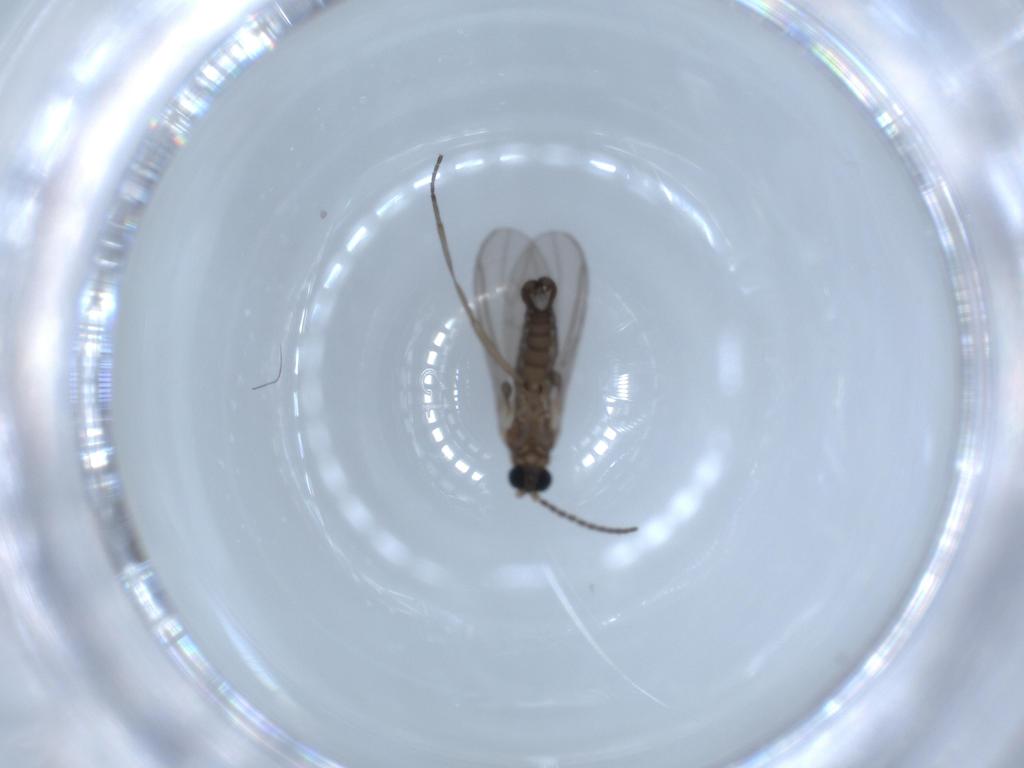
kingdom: Animalia
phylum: Arthropoda
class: Insecta
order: Diptera
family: Sciaridae
